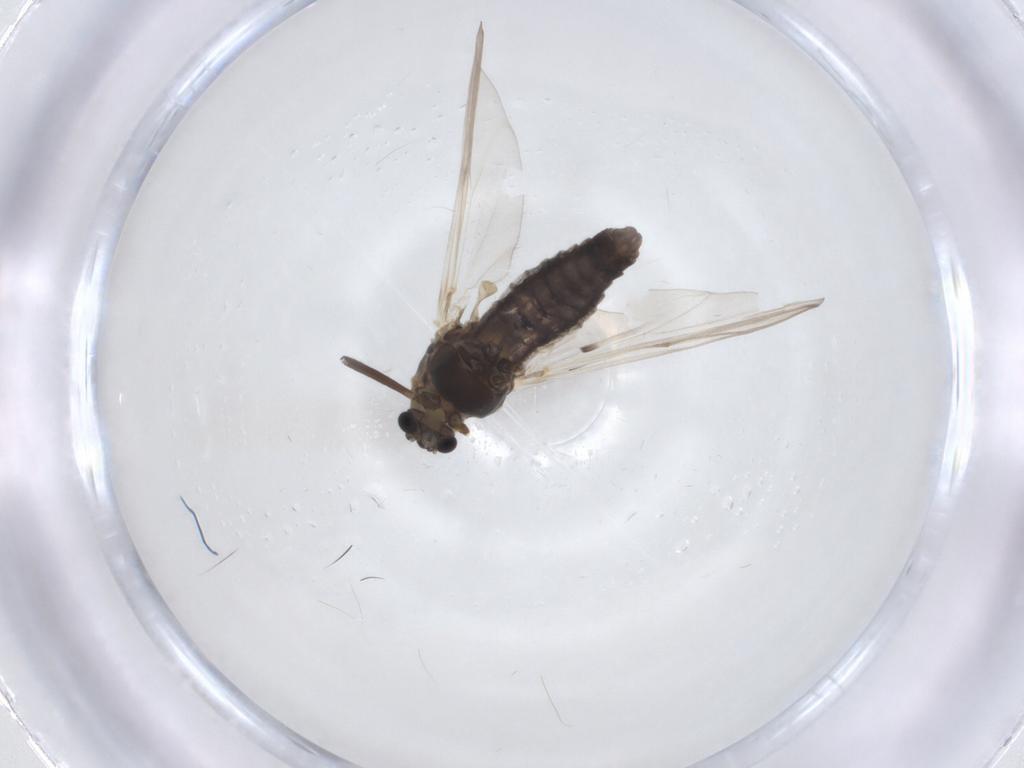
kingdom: Animalia
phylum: Arthropoda
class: Insecta
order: Diptera
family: Chironomidae
